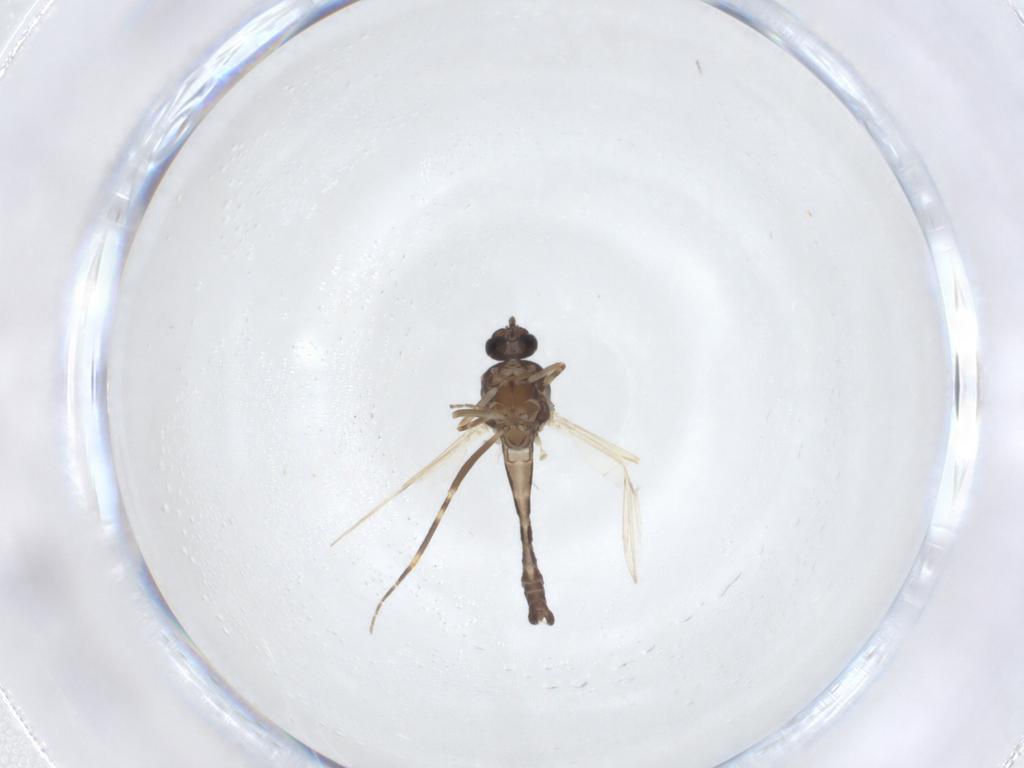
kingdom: Animalia
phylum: Arthropoda
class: Insecta
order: Diptera
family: Ceratopogonidae
